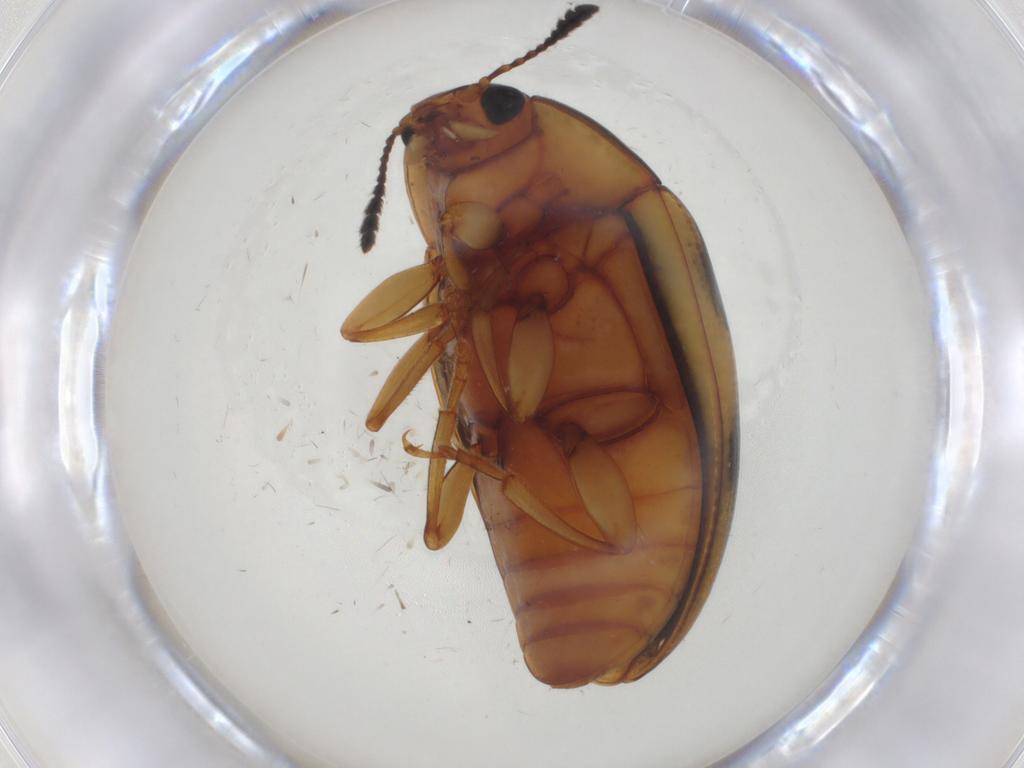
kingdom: Animalia
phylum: Arthropoda
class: Insecta
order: Coleoptera
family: Erotylidae
